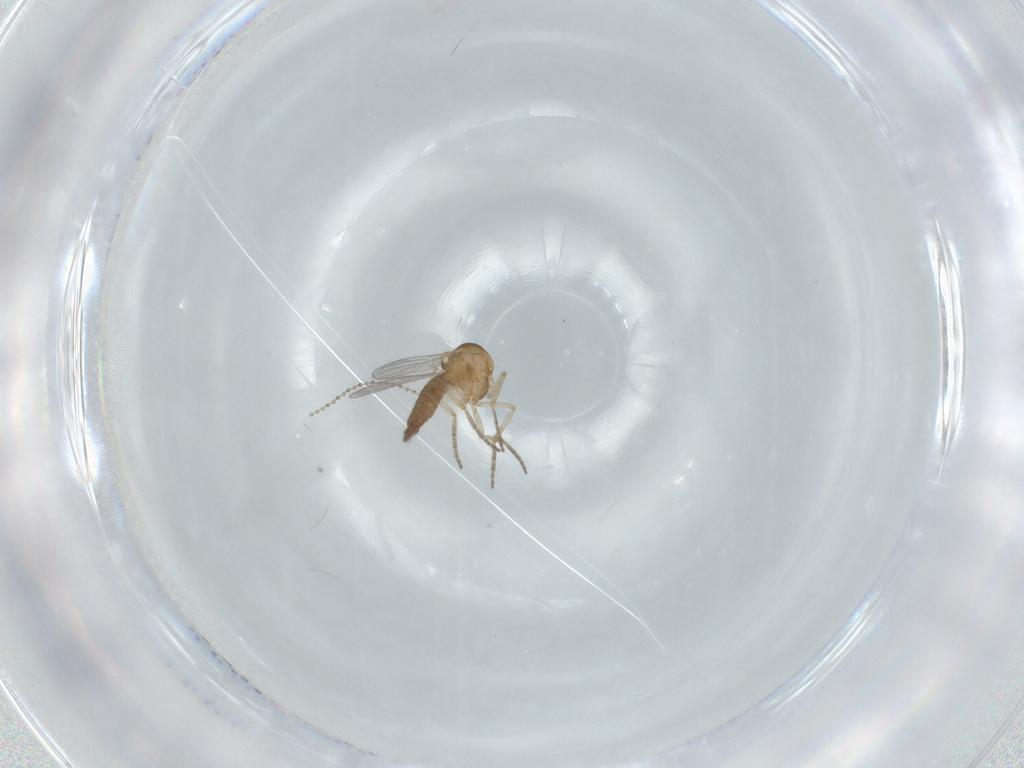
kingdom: Animalia
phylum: Arthropoda
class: Insecta
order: Diptera
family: Cecidomyiidae
